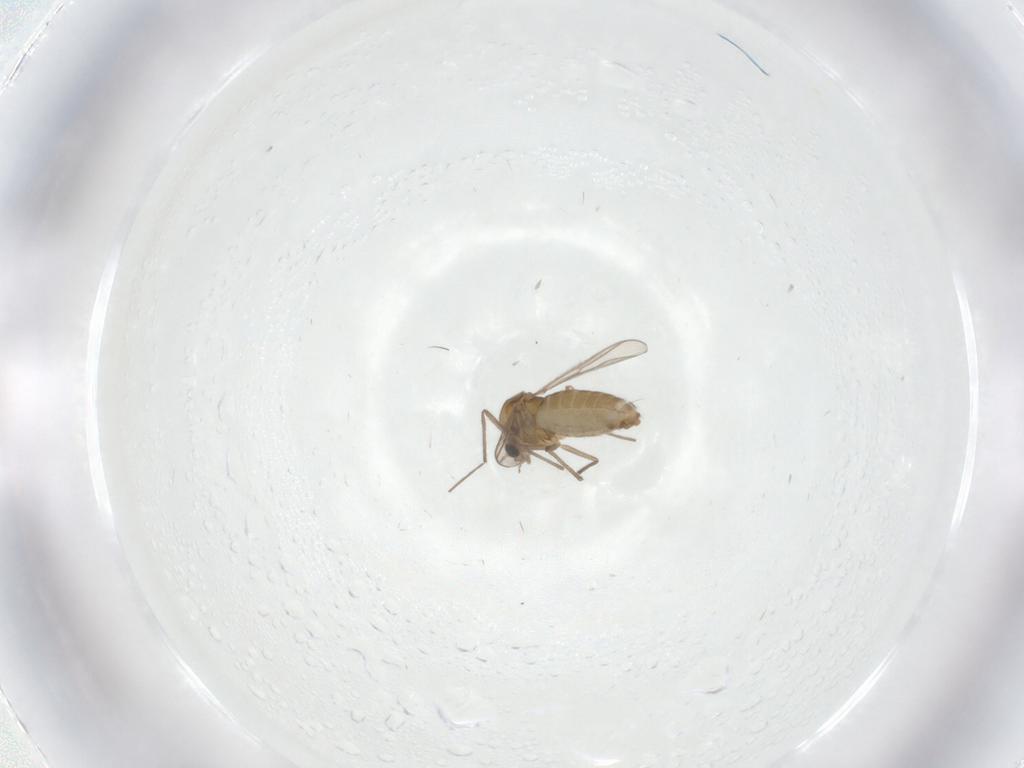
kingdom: Animalia
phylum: Arthropoda
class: Insecta
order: Diptera
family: Chironomidae
